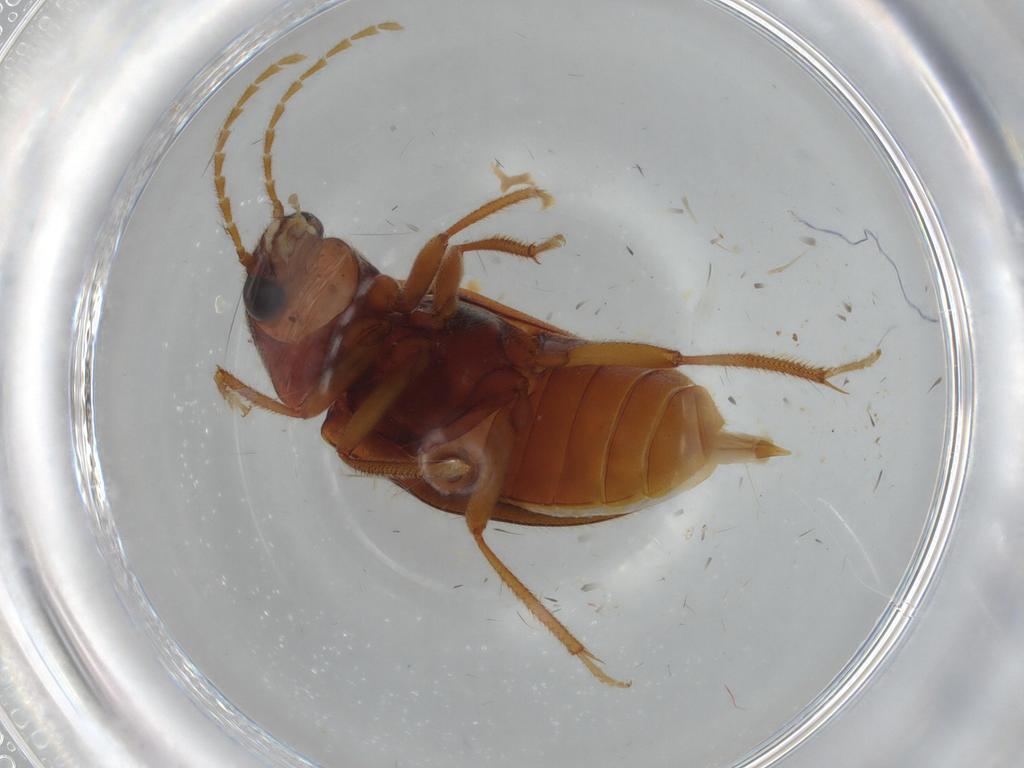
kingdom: Animalia
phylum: Arthropoda
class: Insecta
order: Coleoptera
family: Ptilodactylidae
